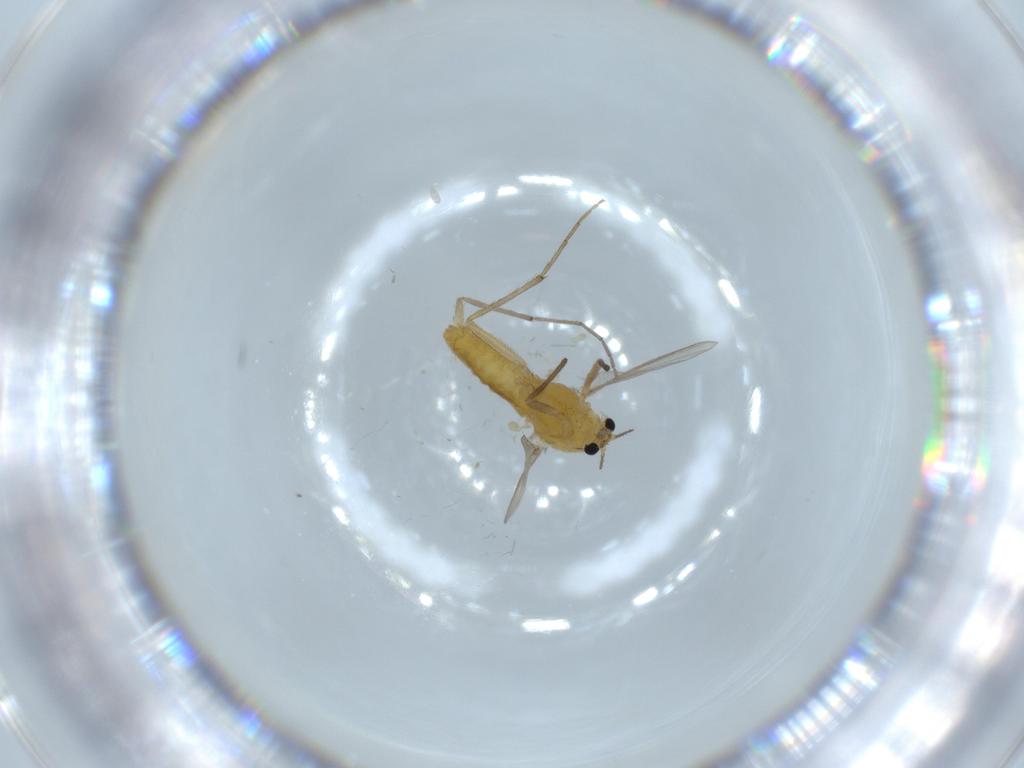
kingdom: Animalia
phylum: Arthropoda
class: Insecta
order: Diptera
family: Chironomidae
